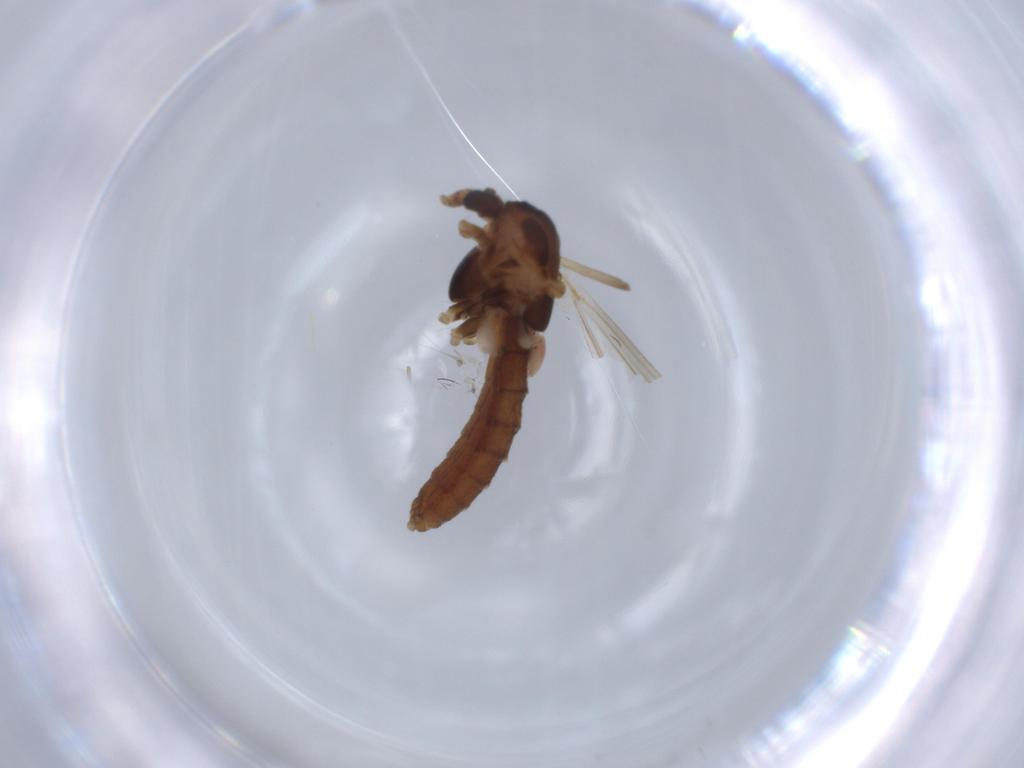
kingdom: Animalia
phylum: Arthropoda
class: Insecta
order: Diptera
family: Chironomidae
